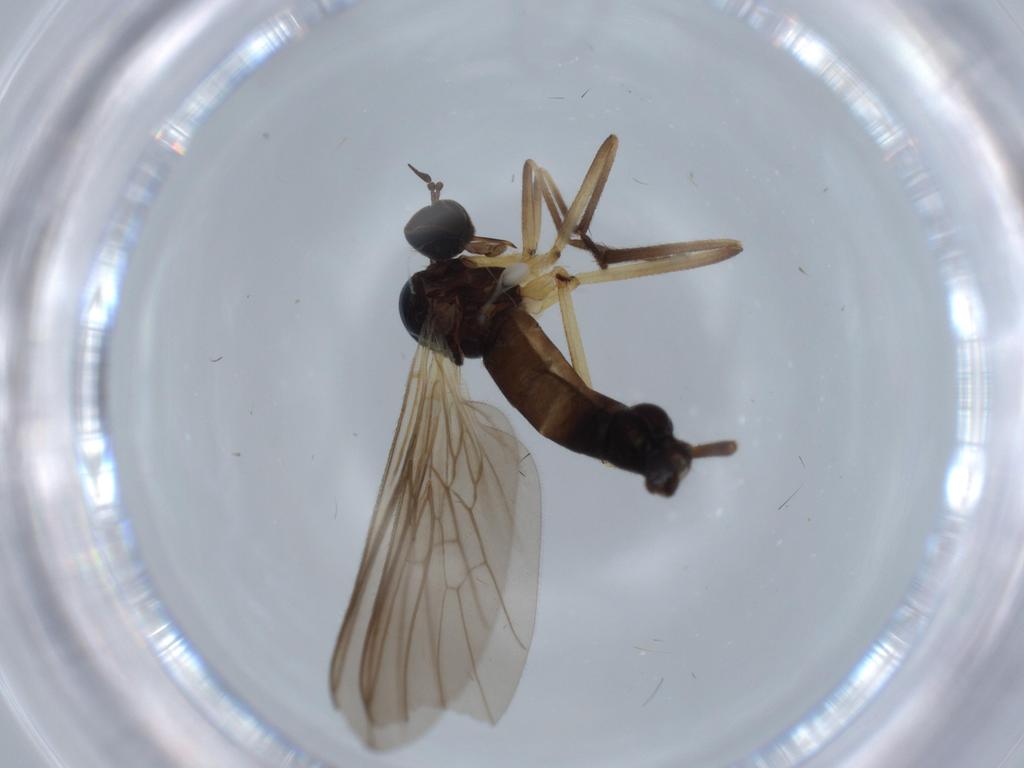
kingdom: Animalia
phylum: Arthropoda
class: Insecta
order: Diptera
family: Empididae
